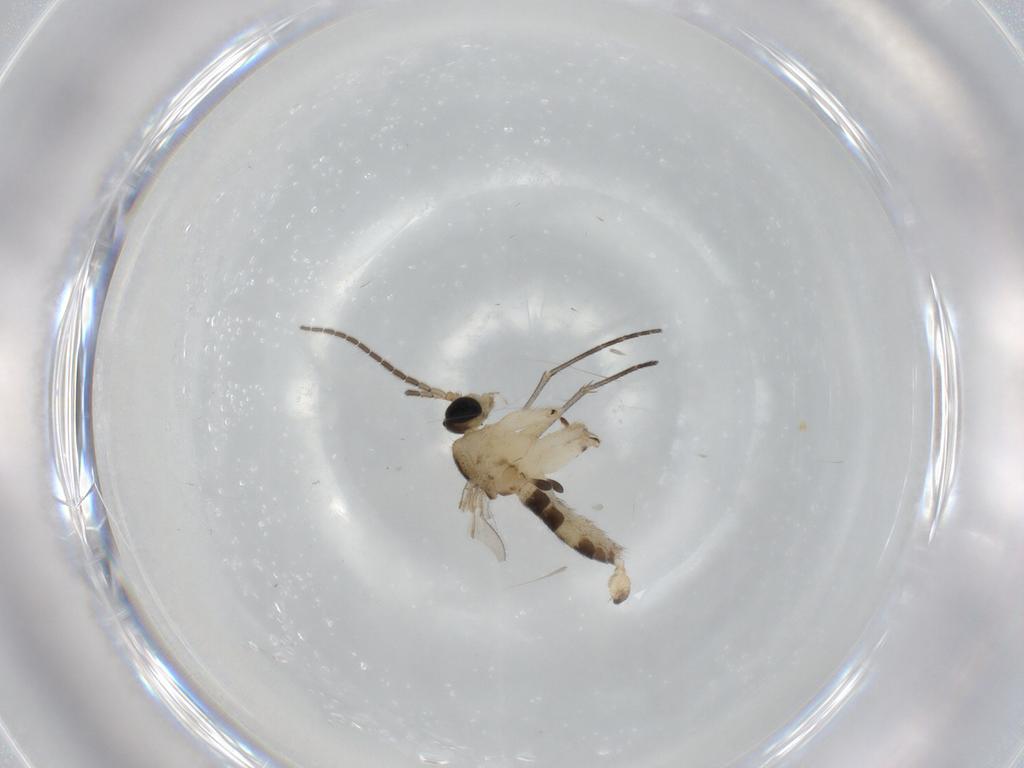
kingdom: Animalia
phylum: Arthropoda
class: Insecta
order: Diptera
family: Sciaridae
